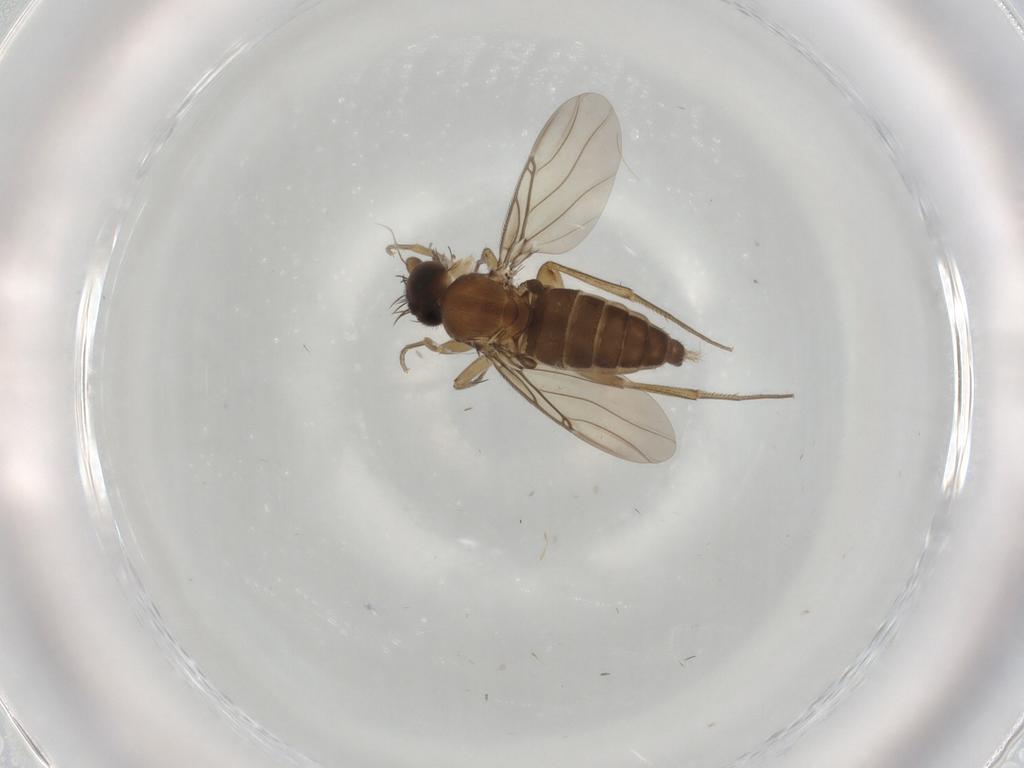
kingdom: Animalia
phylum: Arthropoda
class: Insecta
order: Diptera
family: Phoridae
